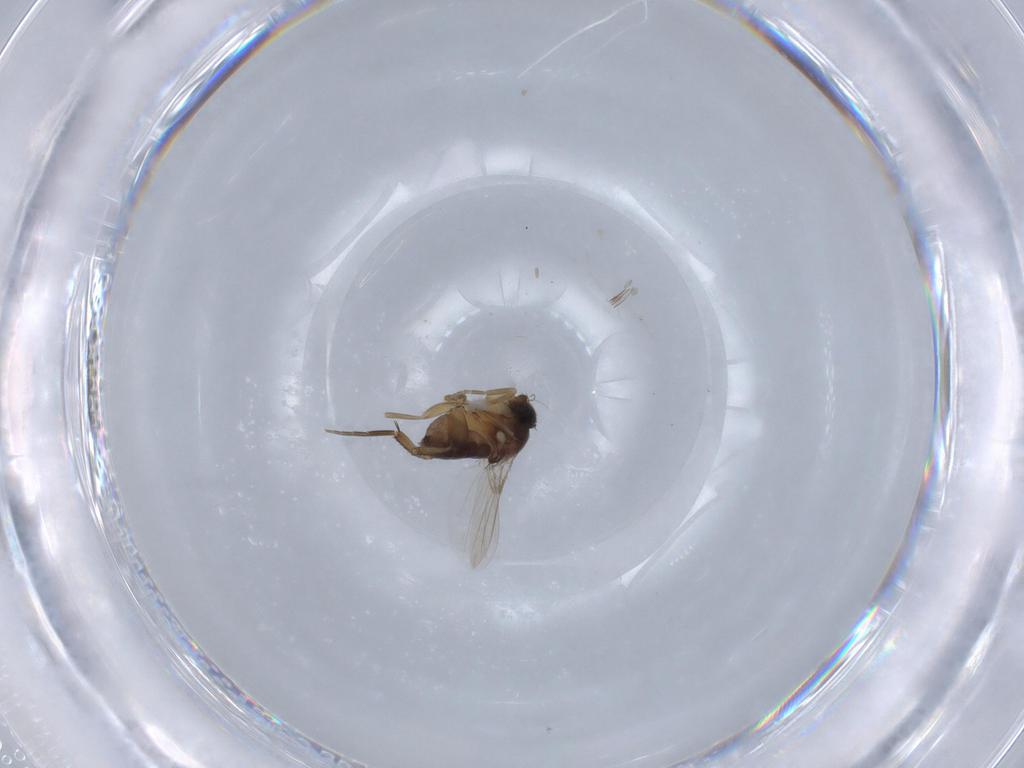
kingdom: Animalia
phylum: Arthropoda
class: Insecta
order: Diptera
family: Phoridae
